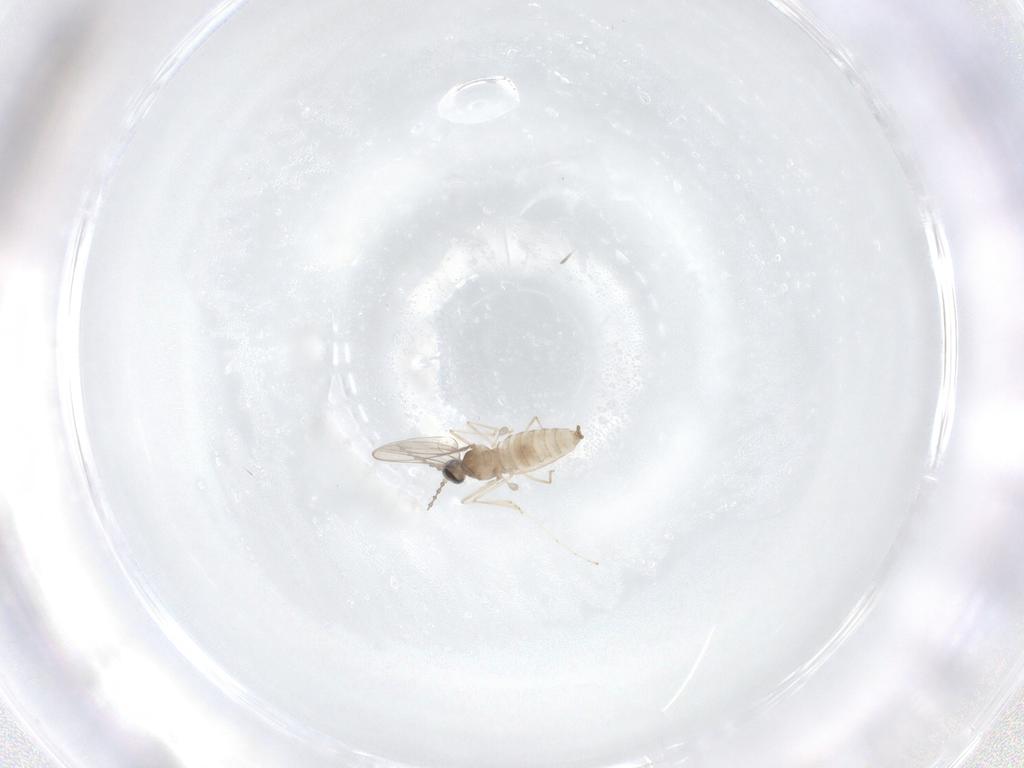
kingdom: Animalia
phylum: Arthropoda
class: Insecta
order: Diptera
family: Cecidomyiidae
